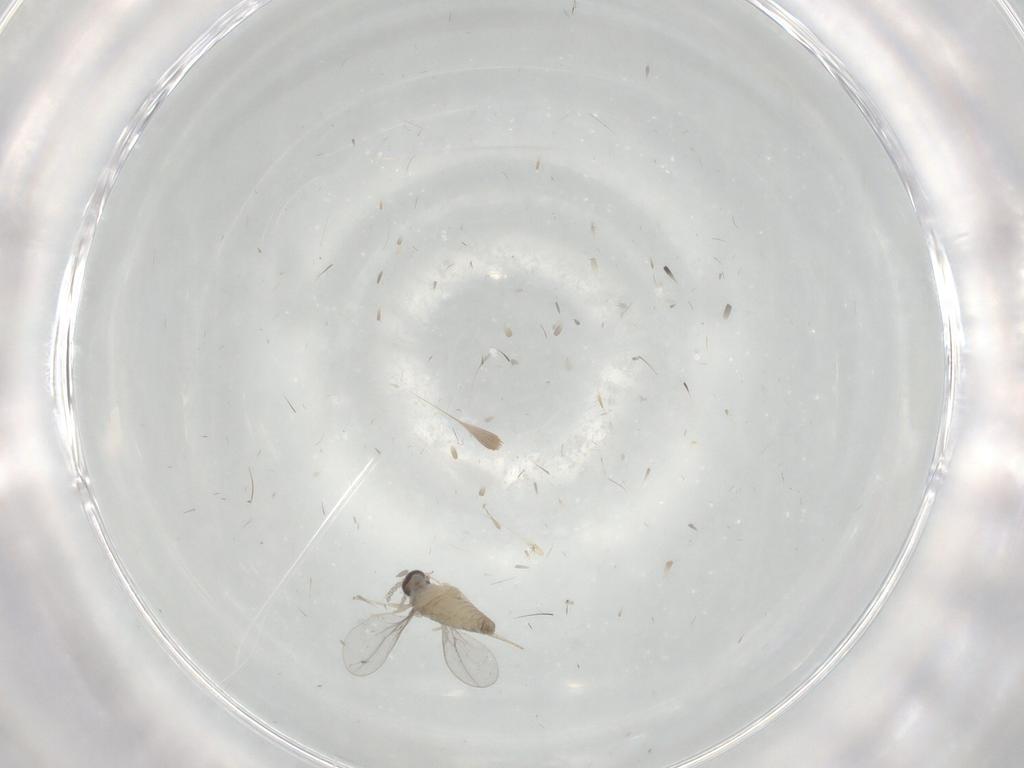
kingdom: Animalia
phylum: Arthropoda
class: Insecta
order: Diptera
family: Cecidomyiidae
